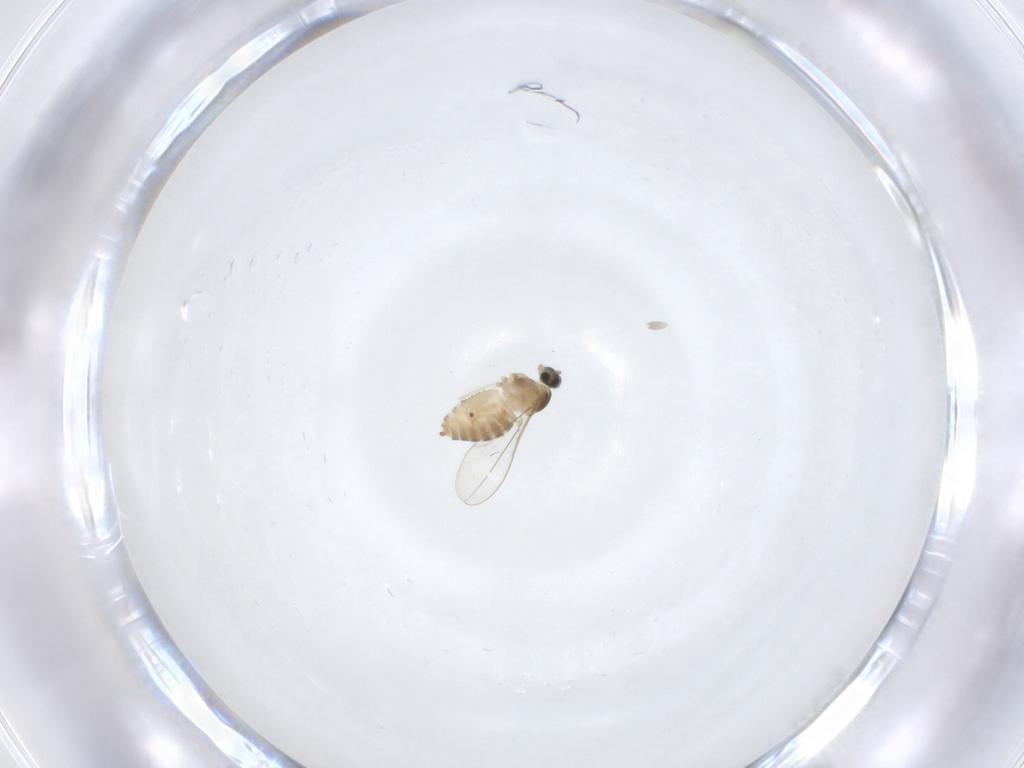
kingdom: Animalia
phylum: Arthropoda
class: Insecta
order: Diptera
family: Cecidomyiidae
